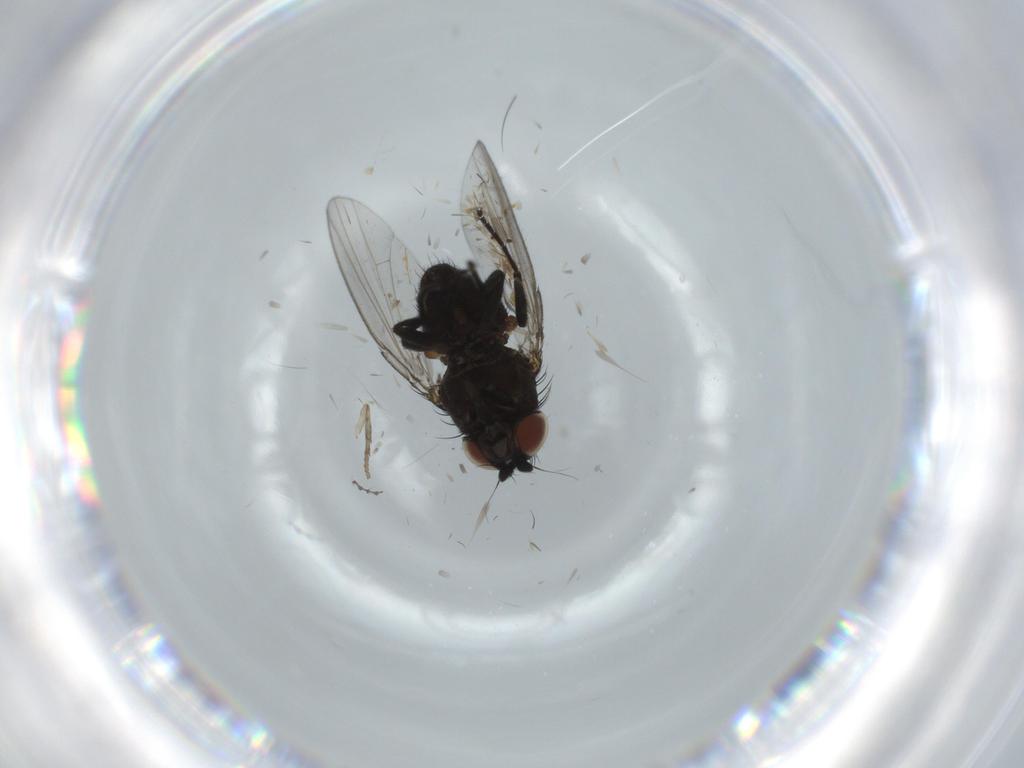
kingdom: Animalia
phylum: Arthropoda
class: Insecta
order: Diptera
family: Milichiidae
